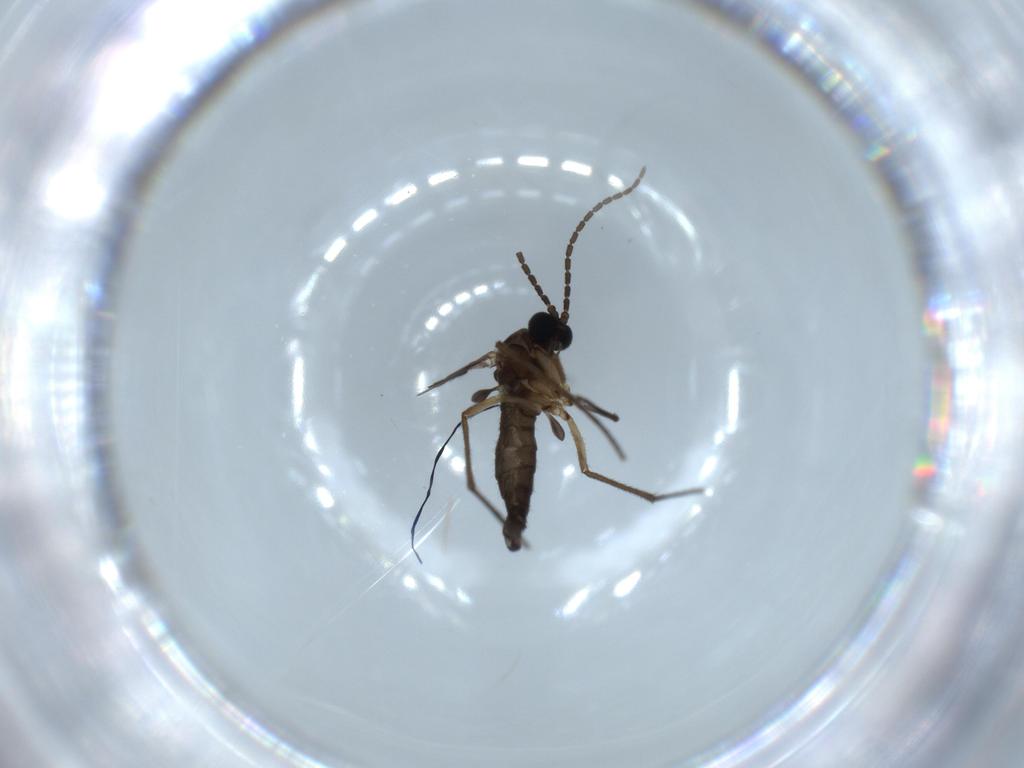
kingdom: Animalia
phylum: Arthropoda
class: Insecta
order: Diptera
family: Sciaridae
